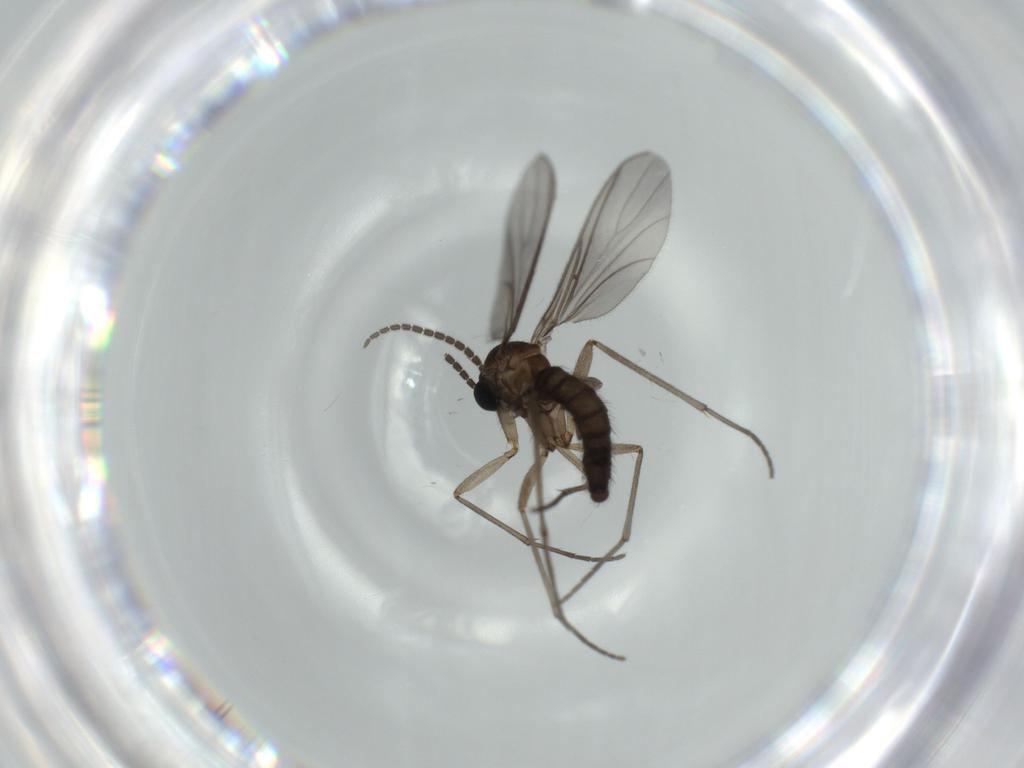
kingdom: Animalia
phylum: Arthropoda
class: Insecta
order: Diptera
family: Sciaridae
